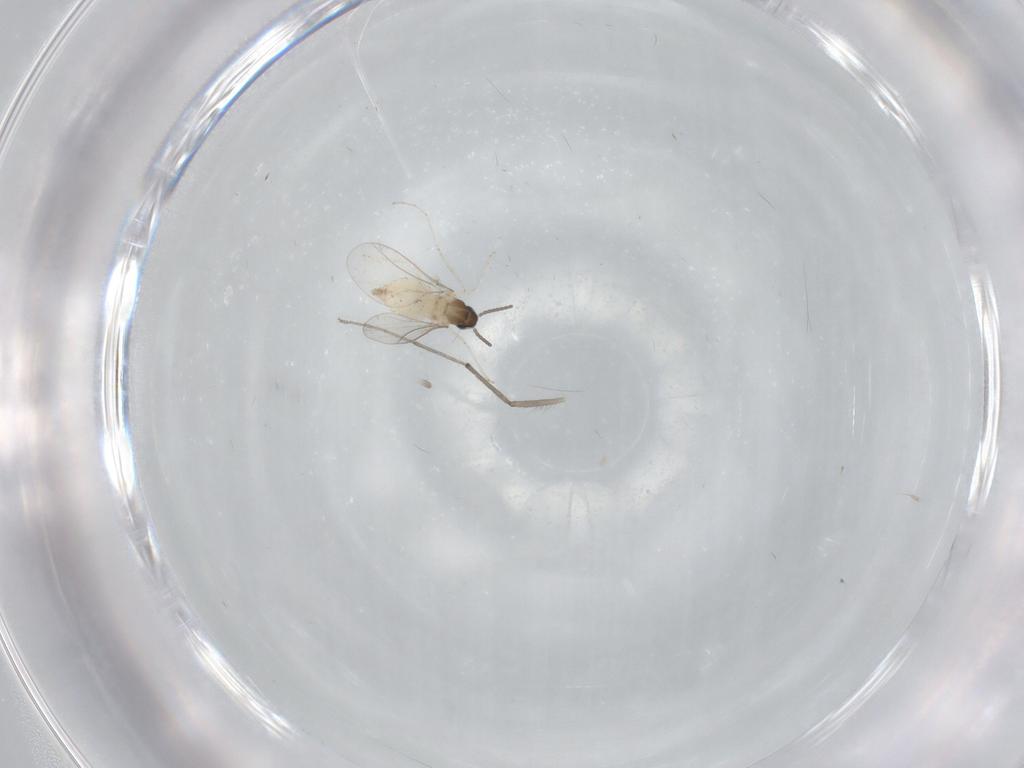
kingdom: Animalia
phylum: Arthropoda
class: Insecta
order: Diptera
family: Cecidomyiidae
